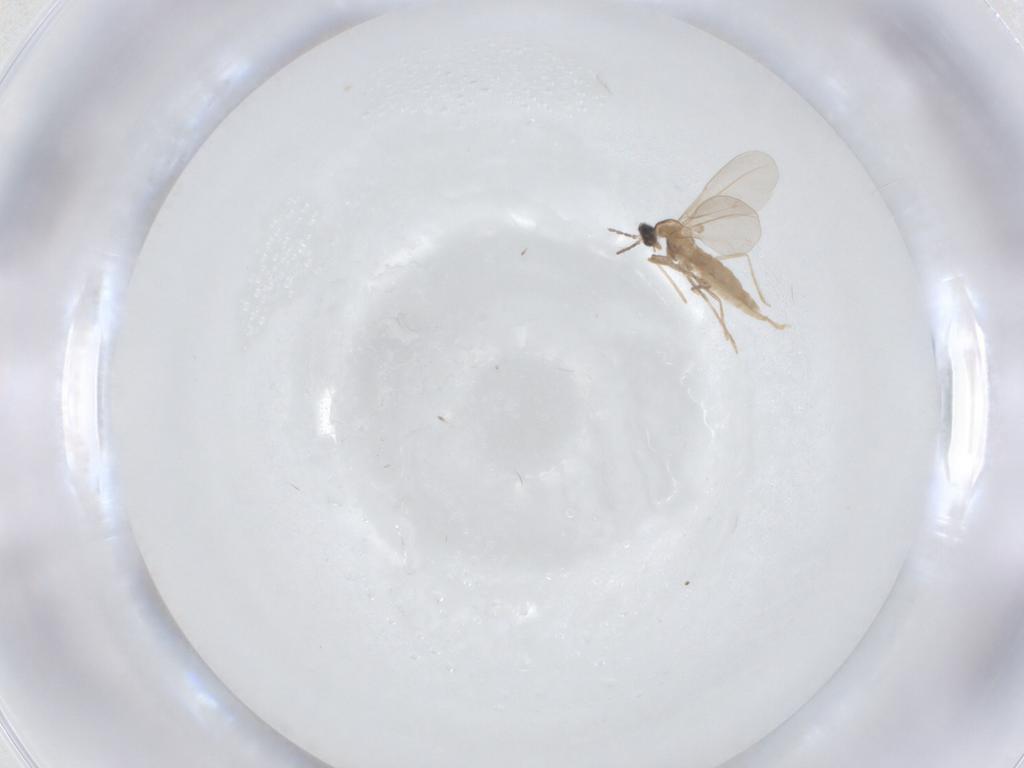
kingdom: Animalia
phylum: Arthropoda
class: Insecta
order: Diptera
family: Cecidomyiidae
